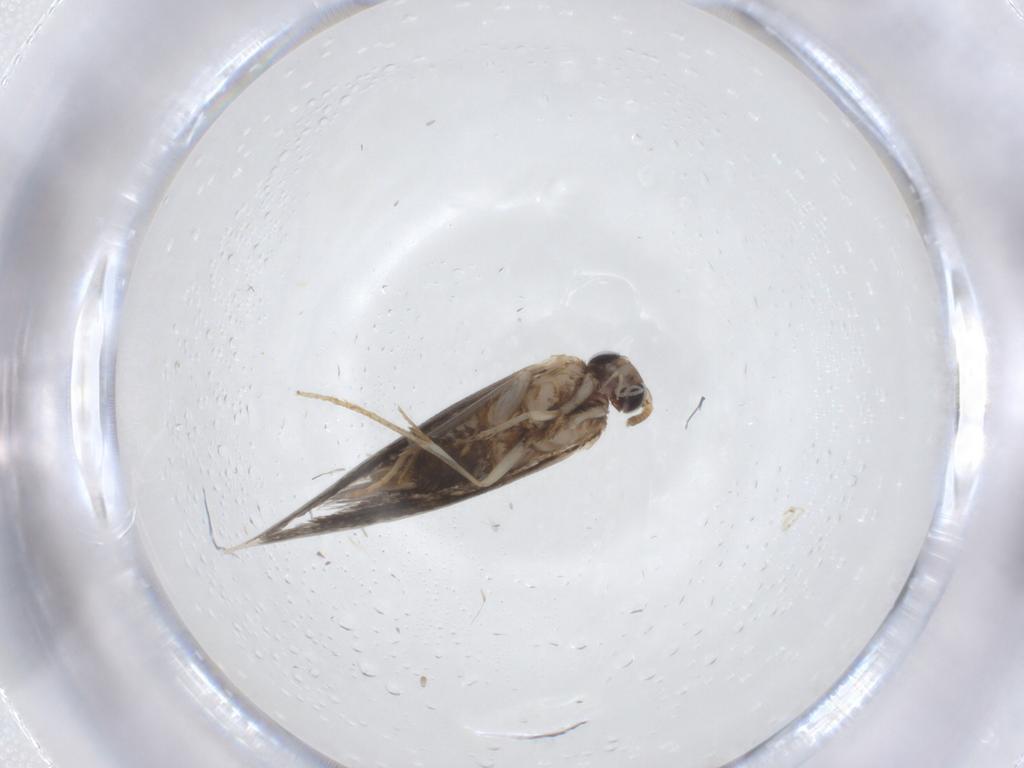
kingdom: Animalia
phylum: Arthropoda
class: Insecta
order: Lepidoptera
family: Tineidae
